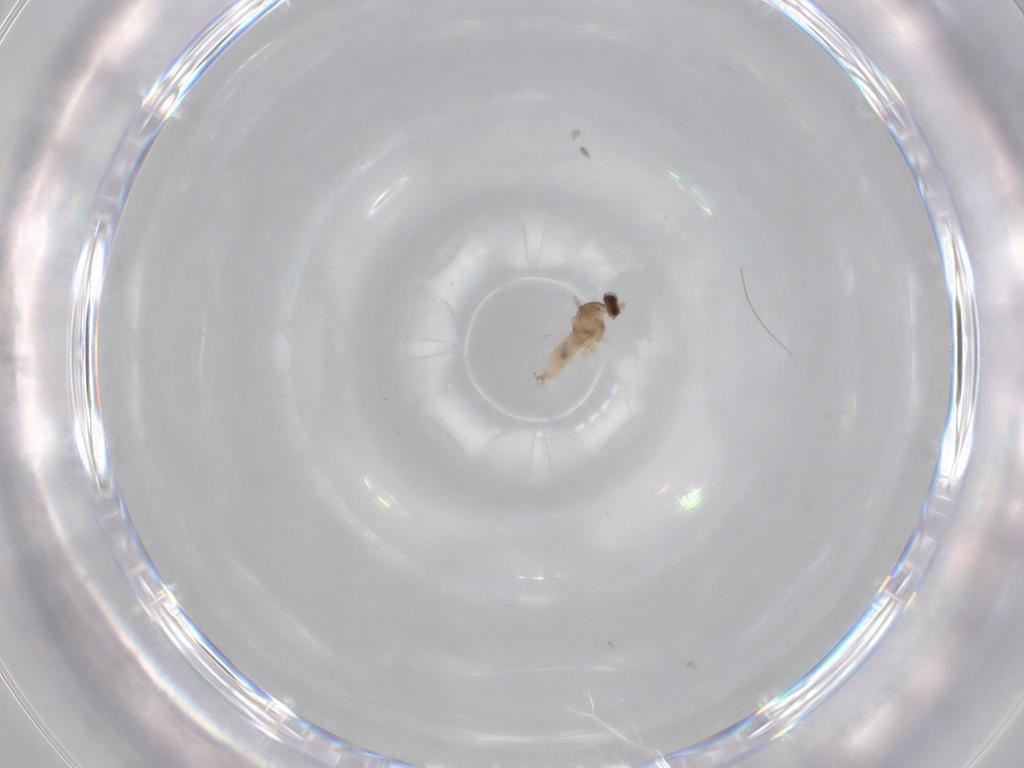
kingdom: Animalia
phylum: Arthropoda
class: Insecta
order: Diptera
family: Syrphidae
